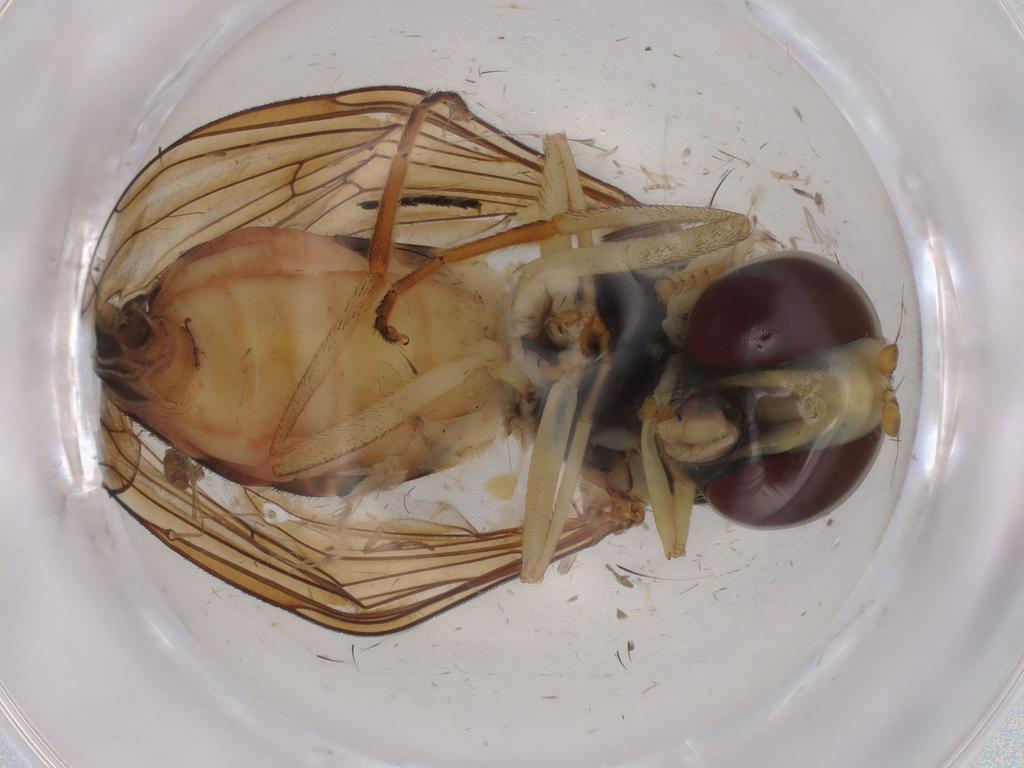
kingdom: Animalia
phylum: Arthropoda
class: Insecta
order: Diptera
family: Syrphidae
